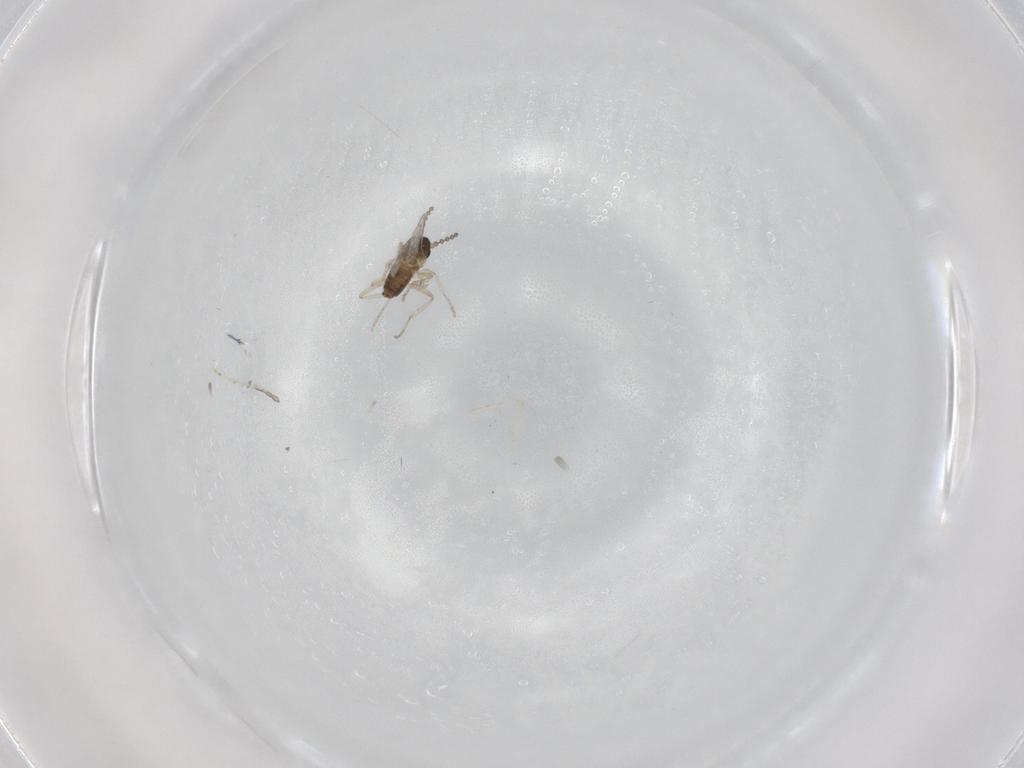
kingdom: Animalia
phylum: Arthropoda
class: Insecta
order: Diptera
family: Cecidomyiidae
